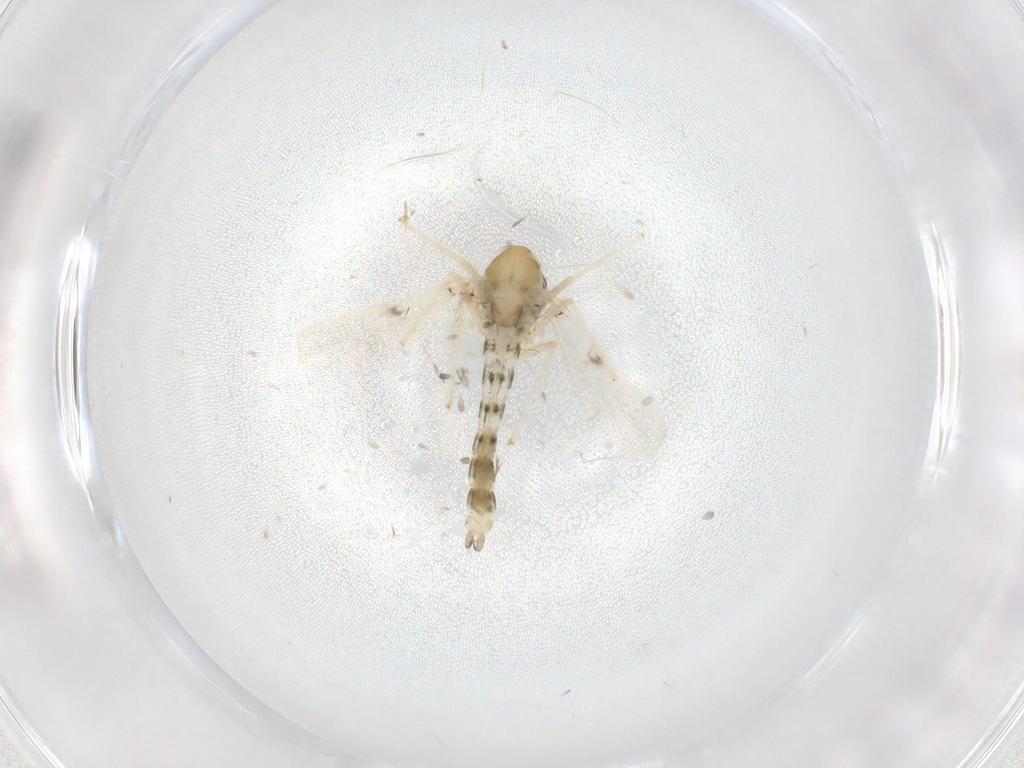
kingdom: Animalia
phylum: Arthropoda
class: Insecta
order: Diptera
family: Chironomidae
